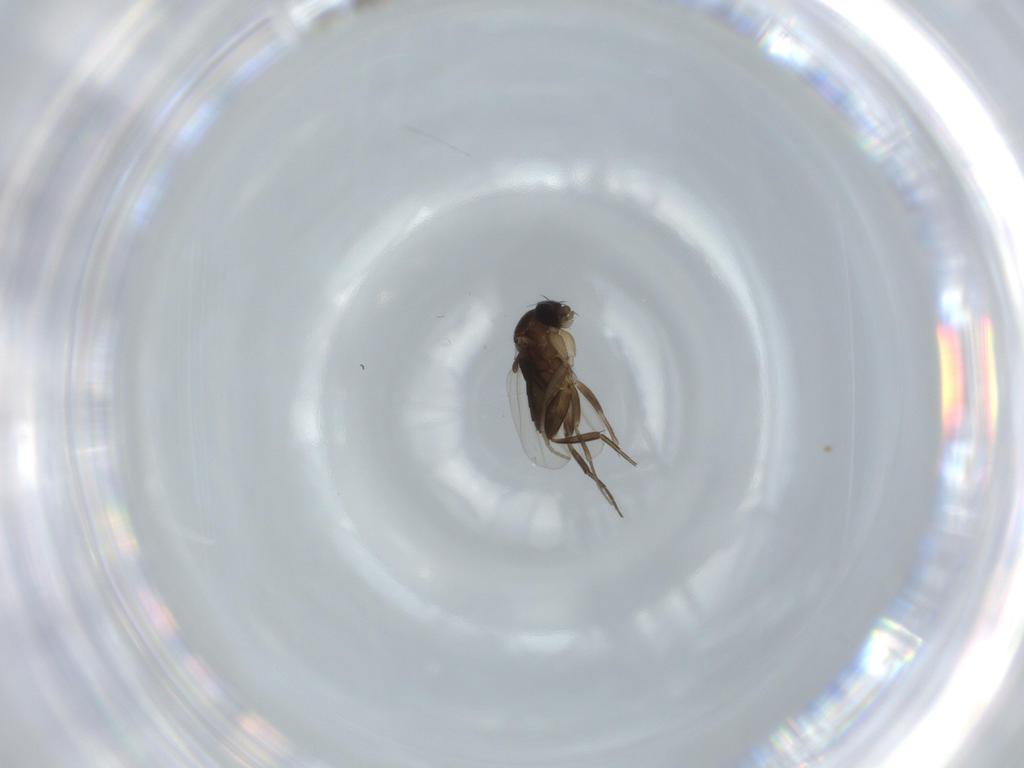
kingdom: Animalia
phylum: Arthropoda
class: Insecta
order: Diptera
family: Phoridae
